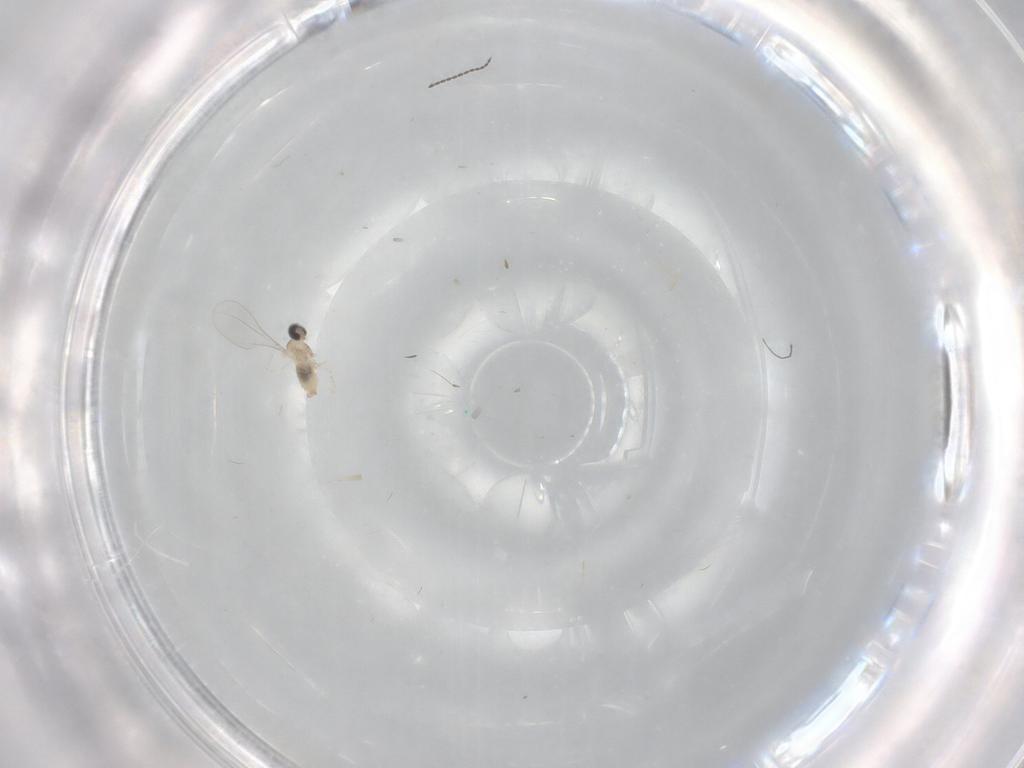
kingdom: Animalia
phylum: Arthropoda
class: Insecta
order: Diptera
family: Cecidomyiidae
